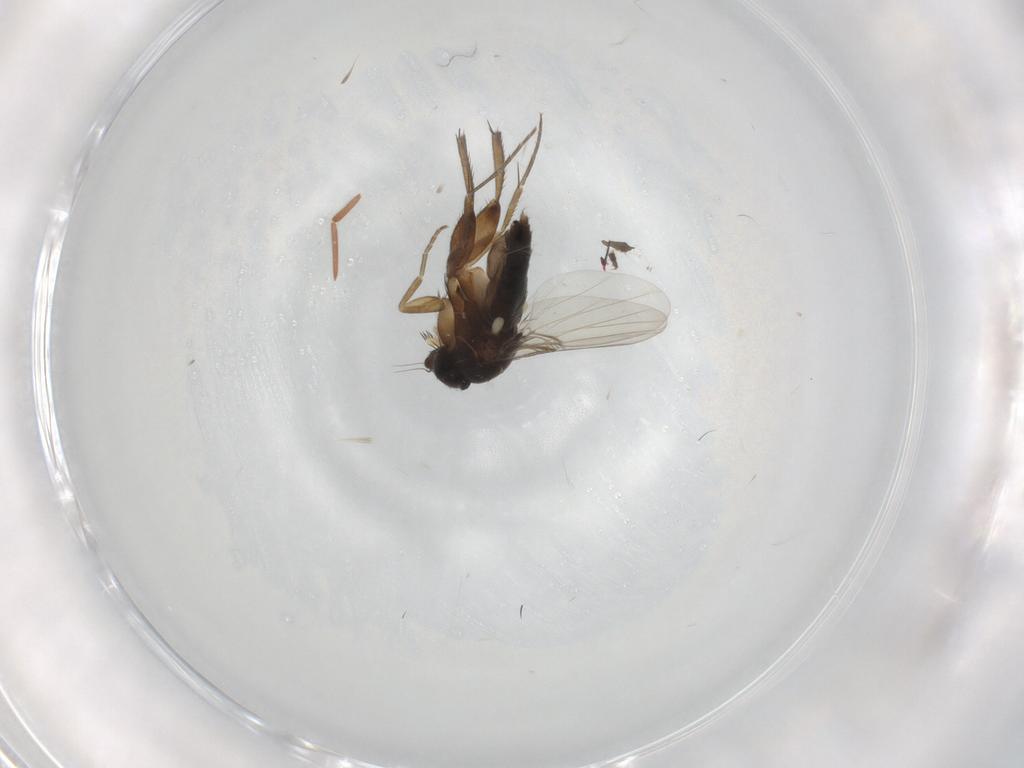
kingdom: Animalia
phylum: Arthropoda
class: Insecta
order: Diptera
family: Phoridae
